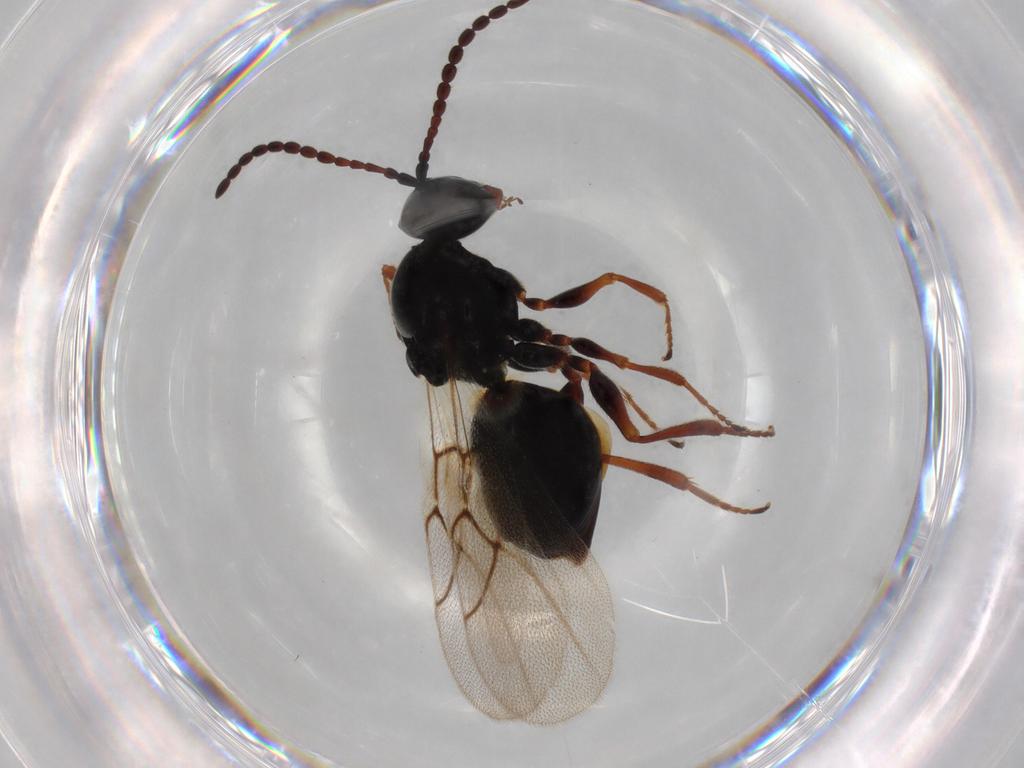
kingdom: Animalia
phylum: Arthropoda
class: Insecta
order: Hymenoptera
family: Figitidae
